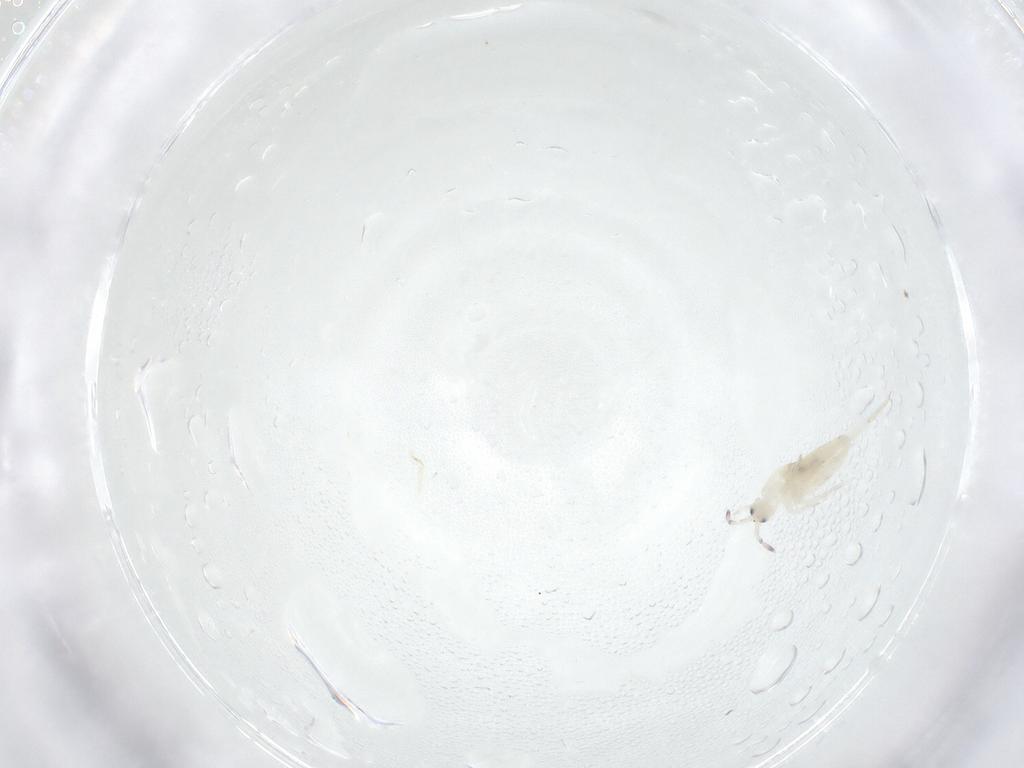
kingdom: Animalia
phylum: Arthropoda
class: Collembola
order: Entomobryomorpha
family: Entomobryidae
